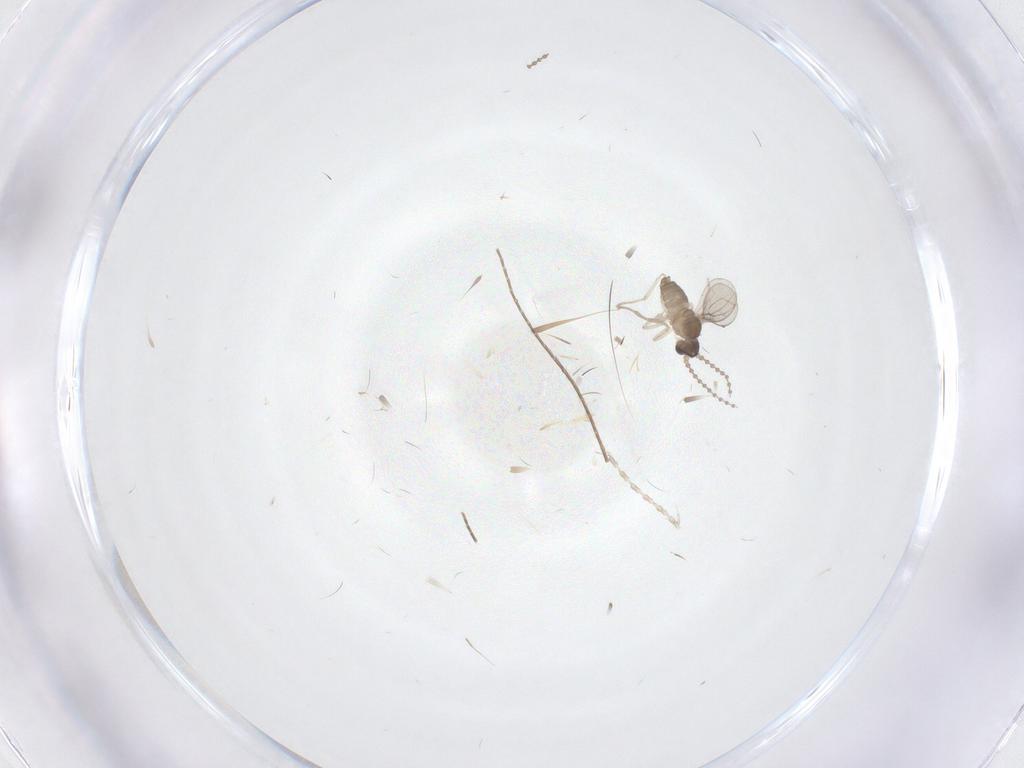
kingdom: Animalia
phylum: Arthropoda
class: Insecta
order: Diptera
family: Cecidomyiidae
